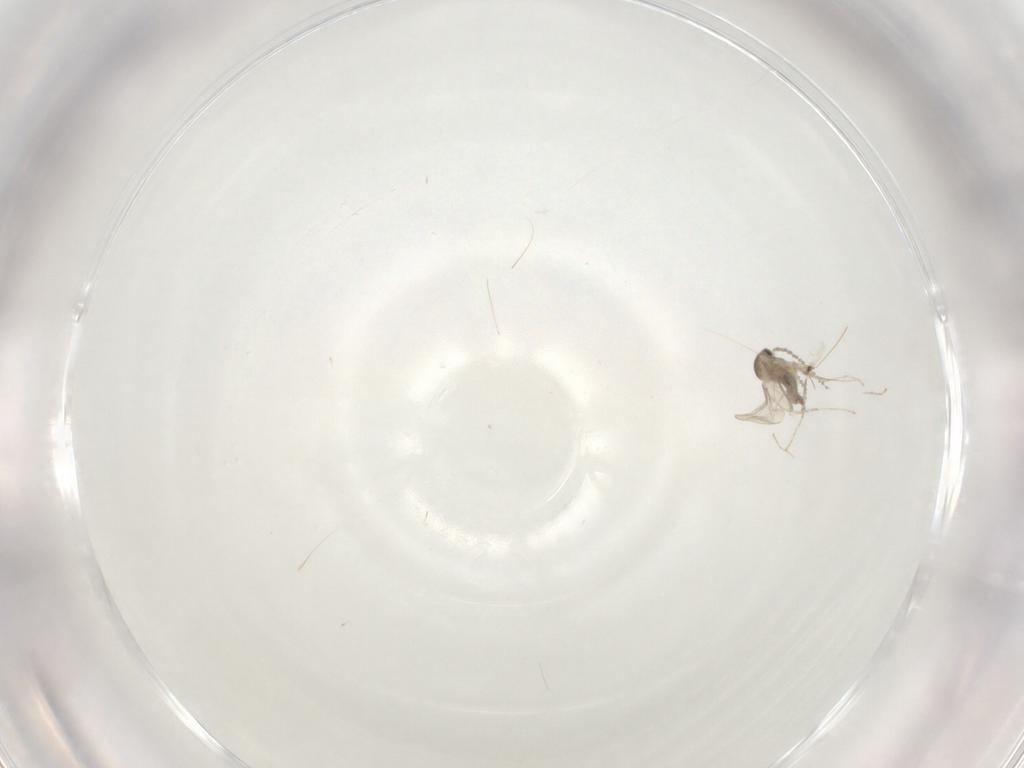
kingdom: Animalia
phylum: Arthropoda
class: Insecta
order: Diptera
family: Cecidomyiidae
